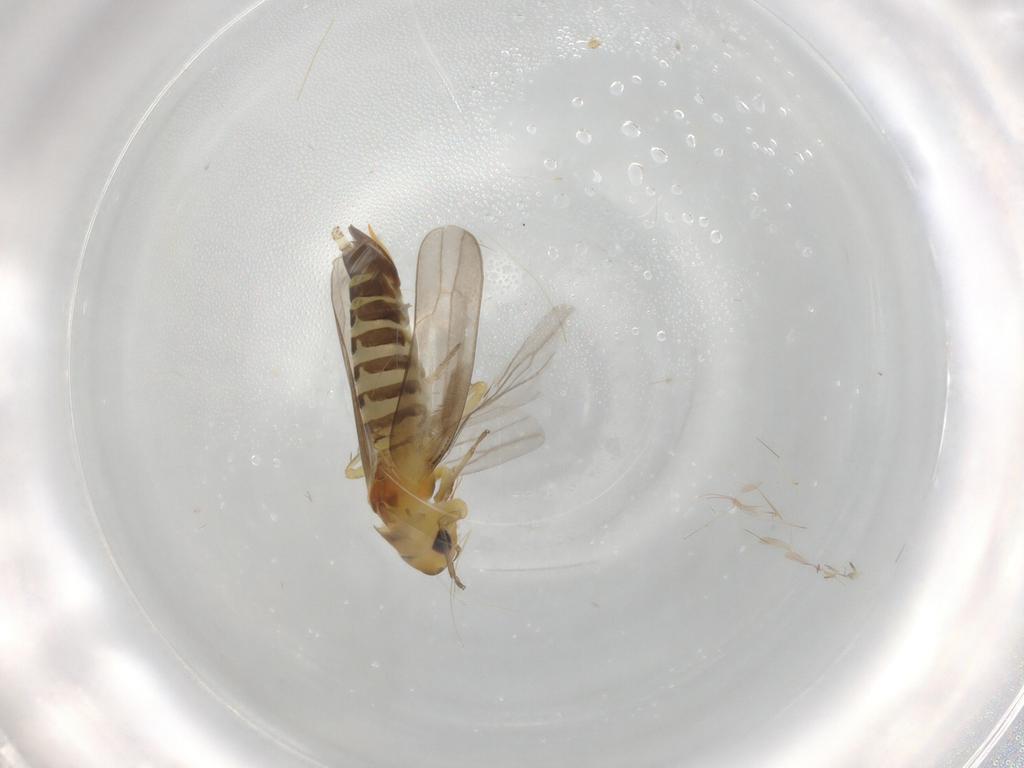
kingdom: Animalia
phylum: Arthropoda
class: Insecta
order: Hemiptera
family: Cicadellidae
